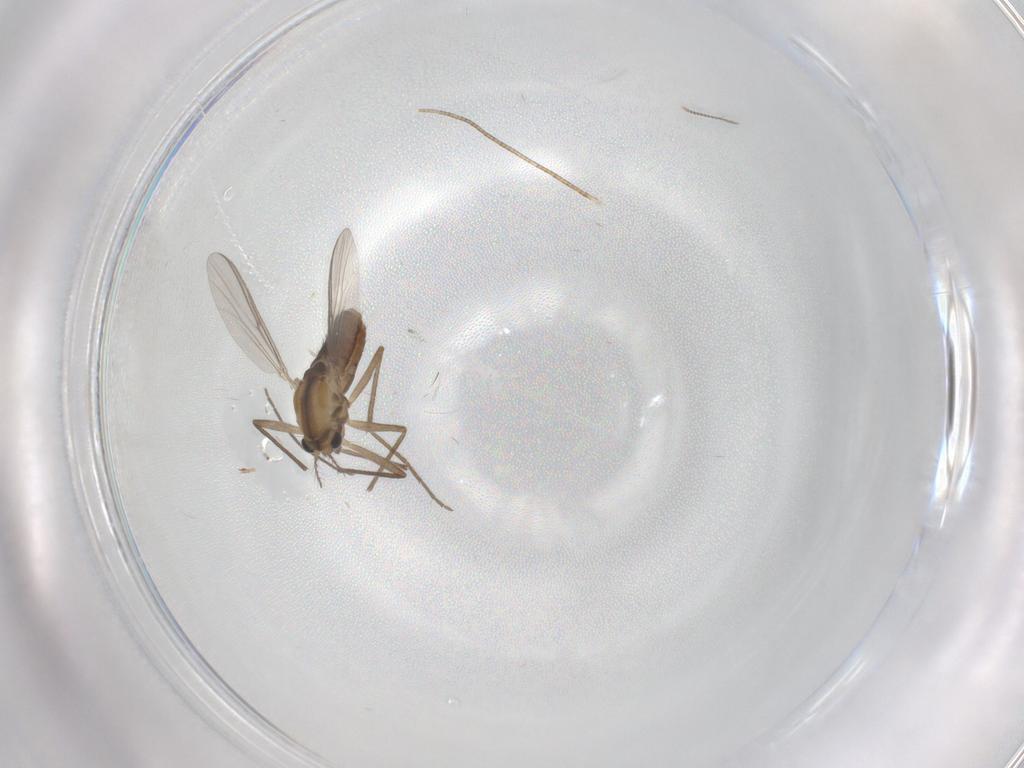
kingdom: Animalia
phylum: Arthropoda
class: Insecta
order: Diptera
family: Chironomidae
